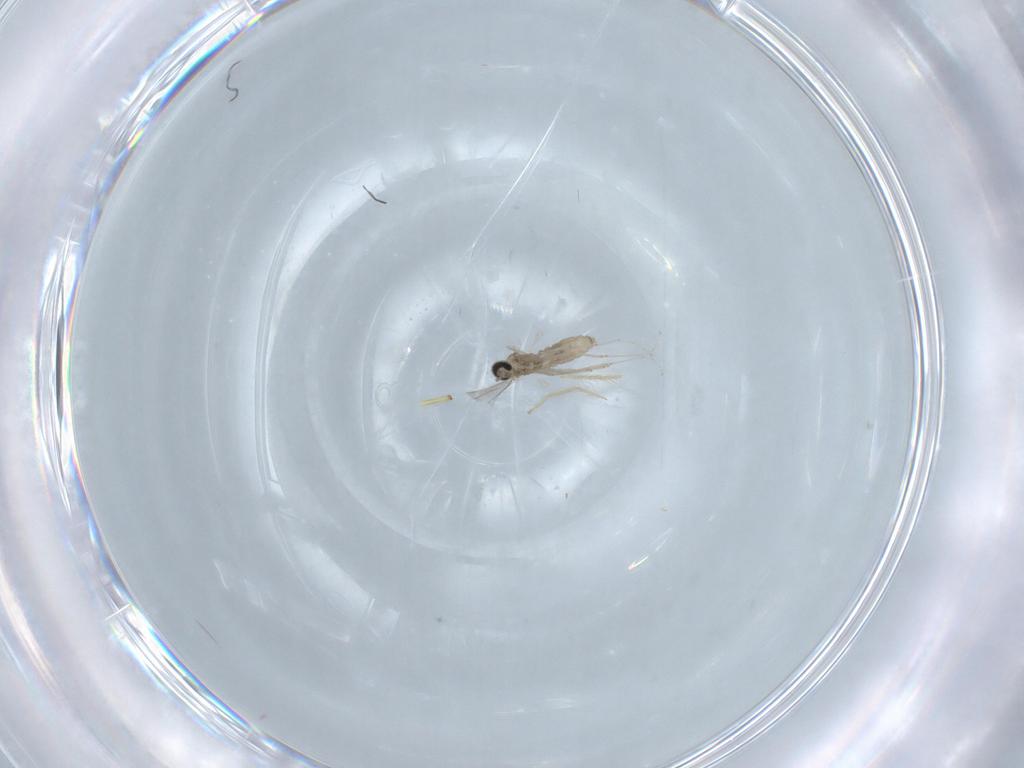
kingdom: Animalia
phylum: Arthropoda
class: Insecta
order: Diptera
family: Cecidomyiidae
